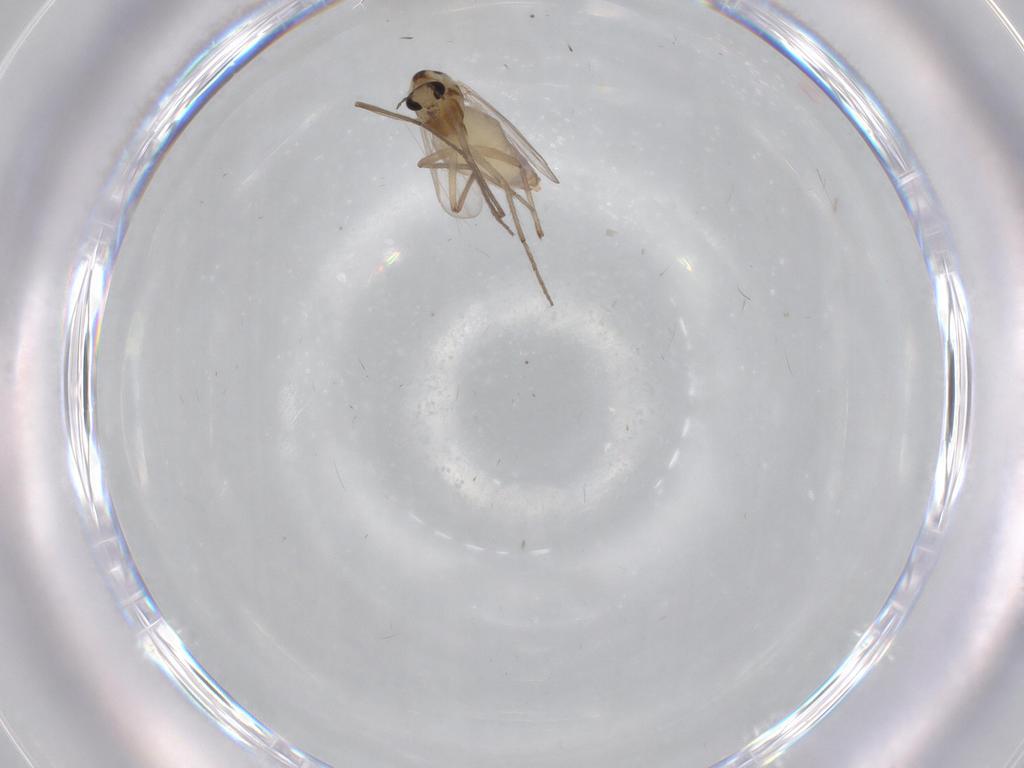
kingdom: Animalia
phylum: Arthropoda
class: Insecta
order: Diptera
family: Chironomidae
